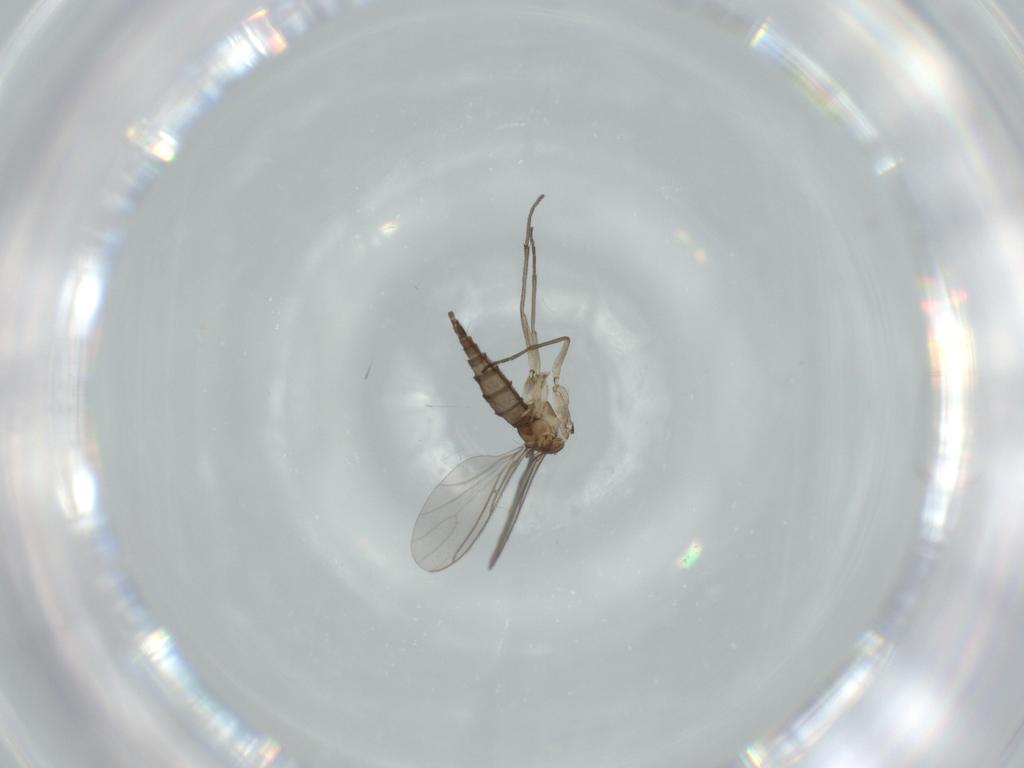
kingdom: Animalia
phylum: Arthropoda
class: Insecta
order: Diptera
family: Sciaridae
